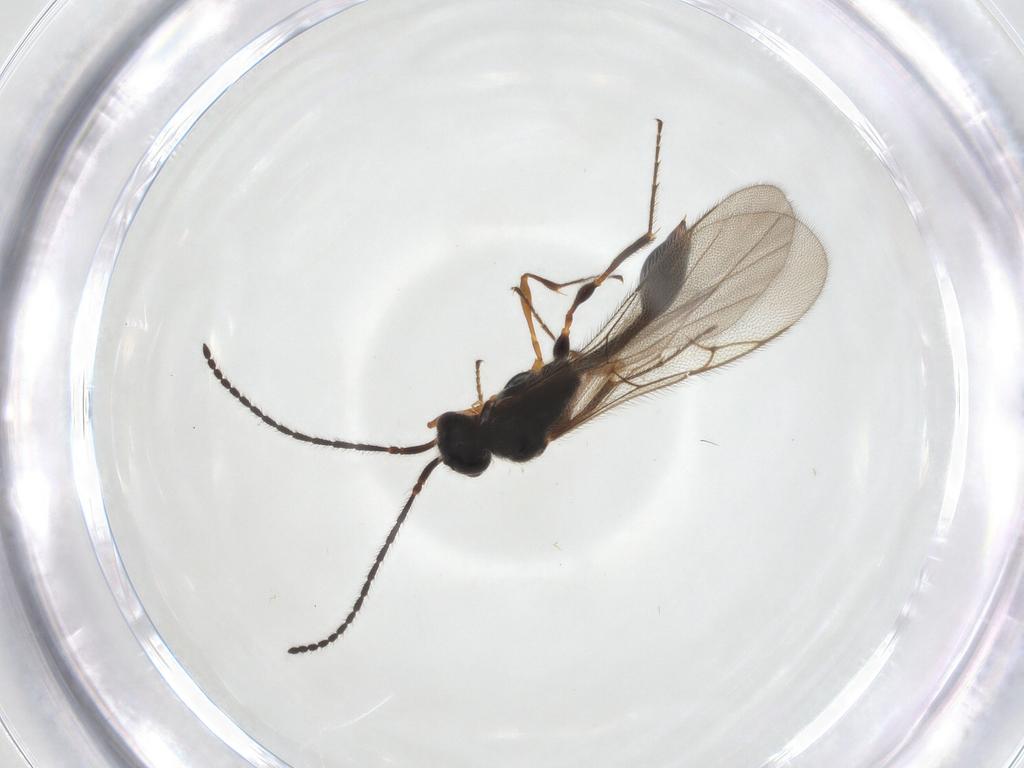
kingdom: Animalia
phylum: Arthropoda
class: Insecta
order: Hymenoptera
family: Diapriidae
